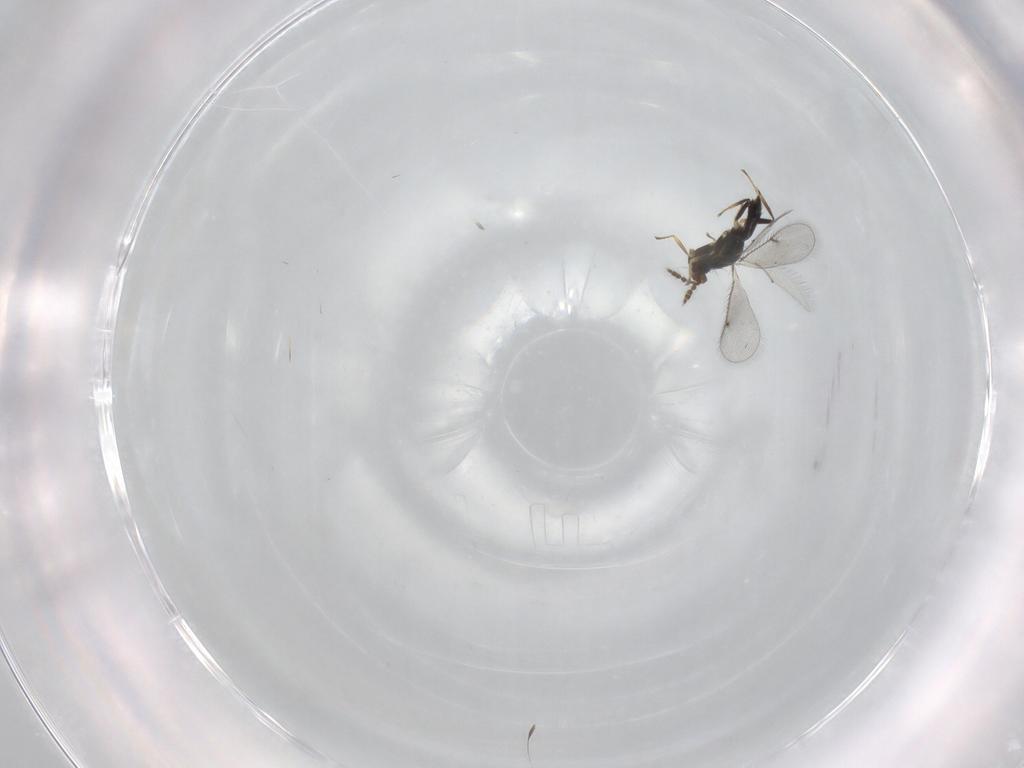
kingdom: Animalia
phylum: Arthropoda
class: Insecta
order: Hymenoptera
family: Eulophidae
